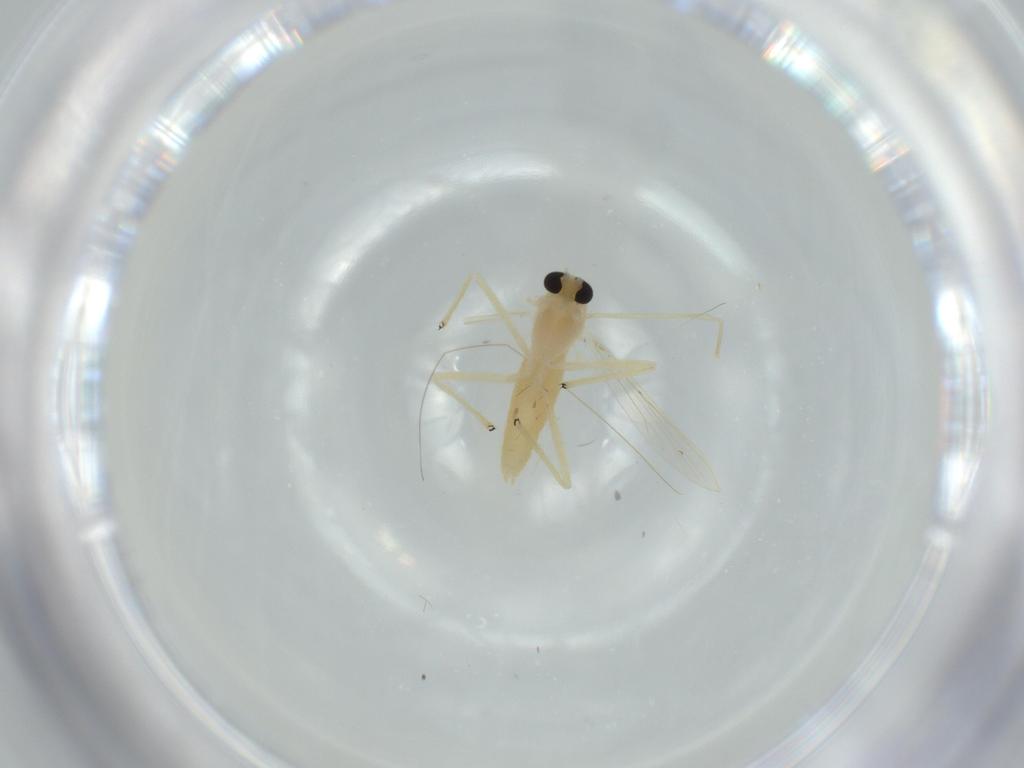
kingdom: Animalia
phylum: Arthropoda
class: Insecta
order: Diptera
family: Chironomidae
